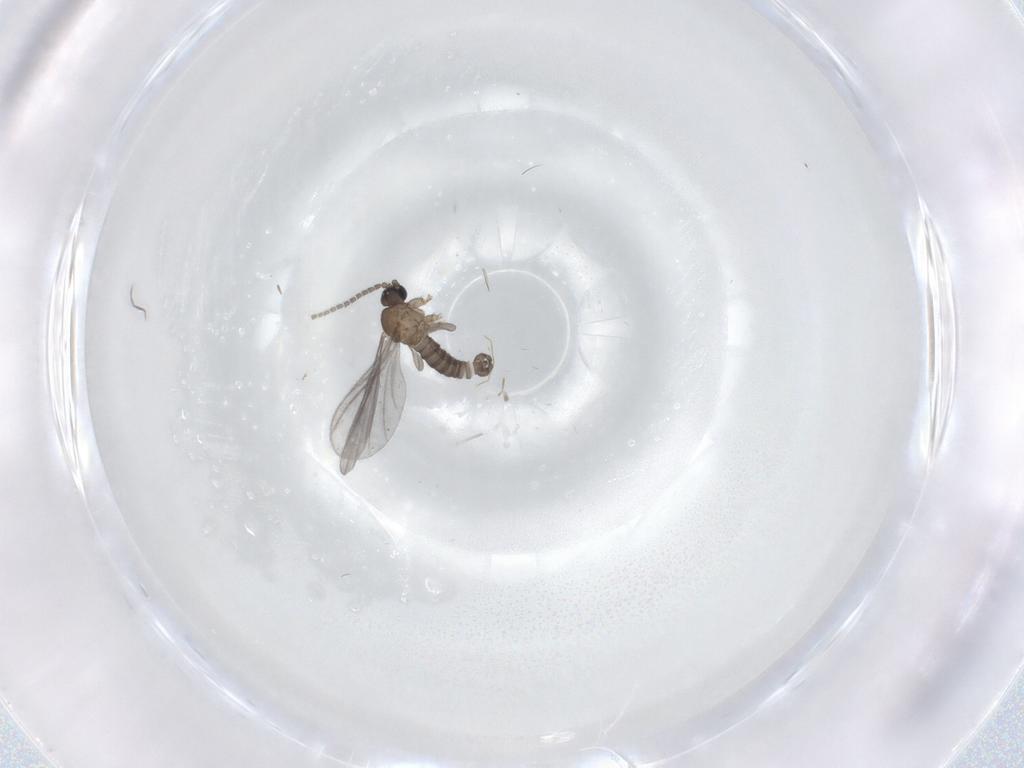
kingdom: Animalia
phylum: Arthropoda
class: Insecta
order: Diptera
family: Sciaridae
